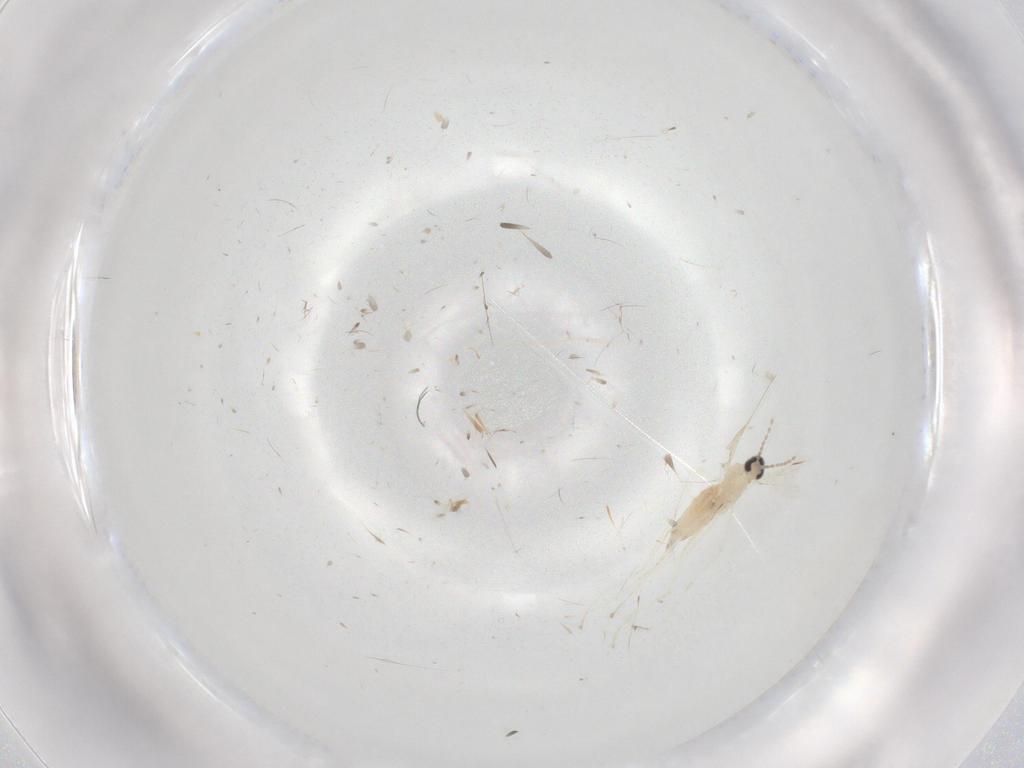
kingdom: Animalia
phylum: Arthropoda
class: Insecta
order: Diptera
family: Cecidomyiidae
